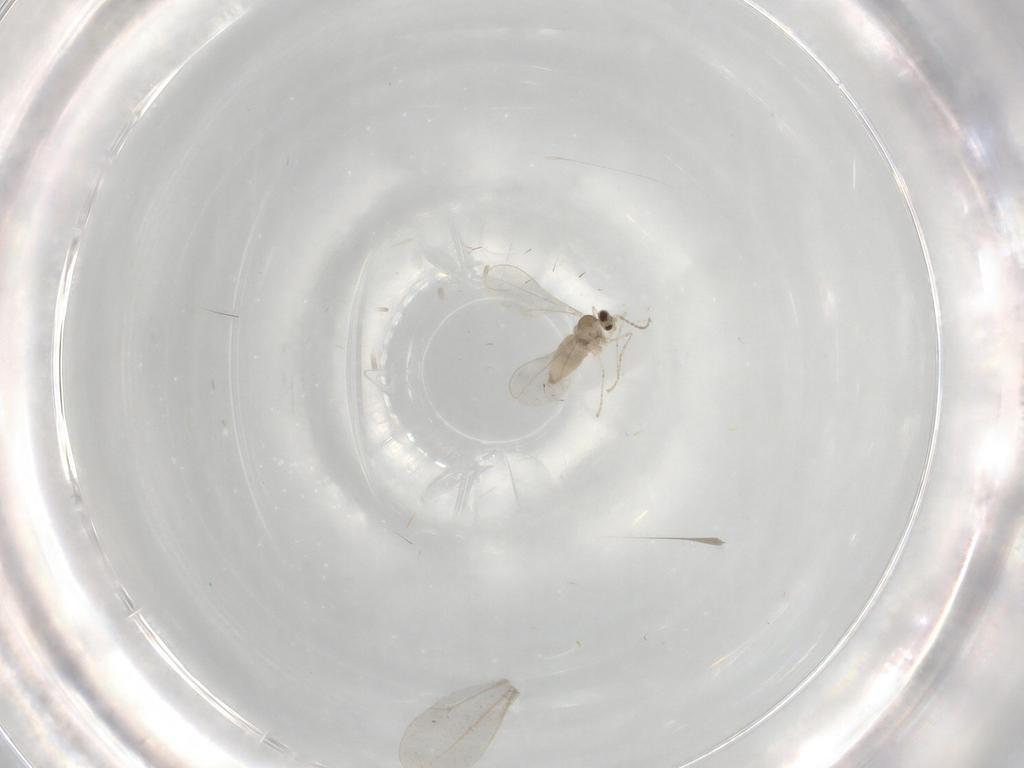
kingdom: Animalia
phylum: Arthropoda
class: Insecta
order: Diptera
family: Cecidomyiidae
